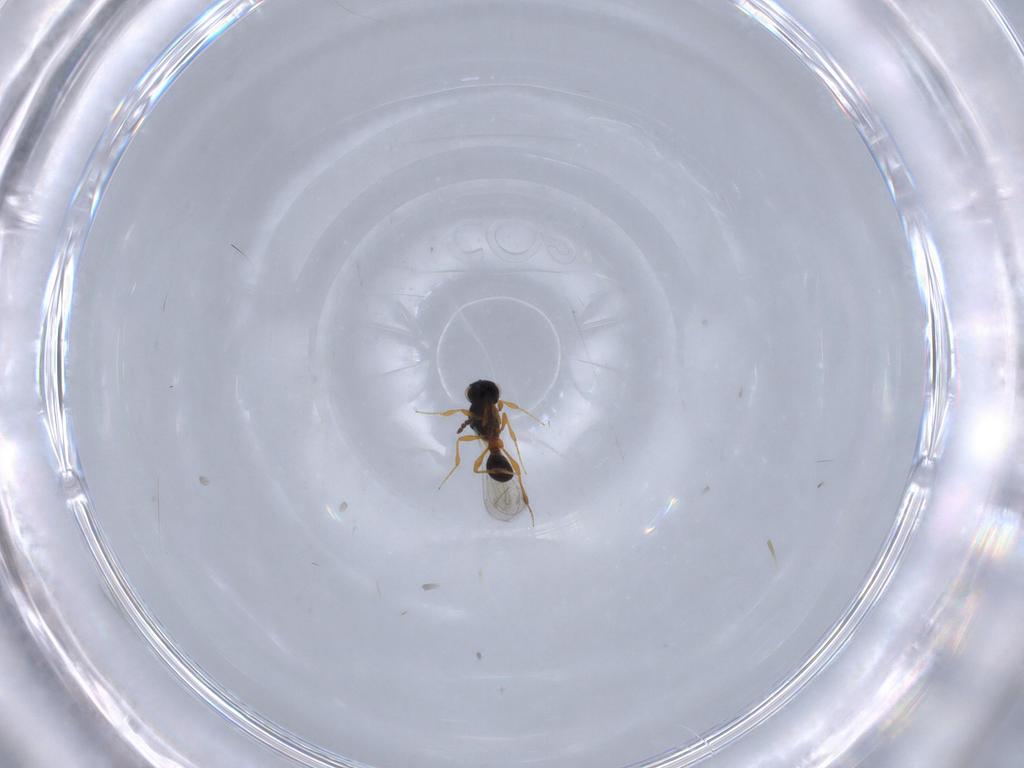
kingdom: Animalia
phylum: Arthropoda
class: Insecta
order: Hymenoptera
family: Platygastridae
